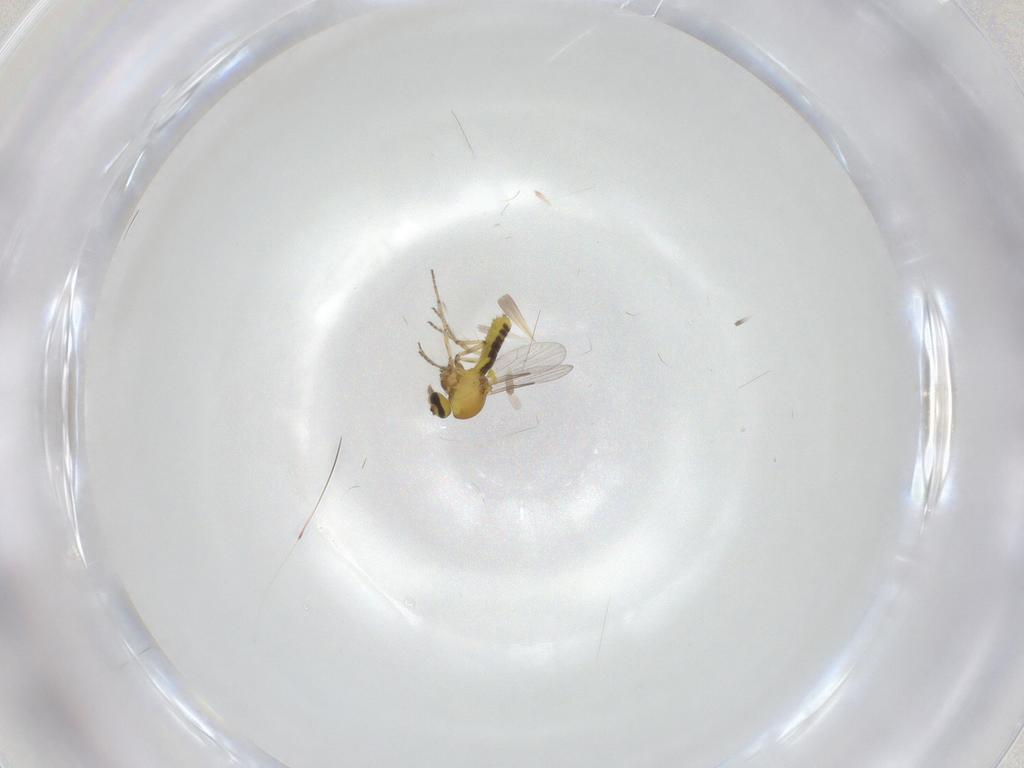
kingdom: Animalia
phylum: Arthropoda
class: Insecta
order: Diptera
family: Ceratopogonidae
